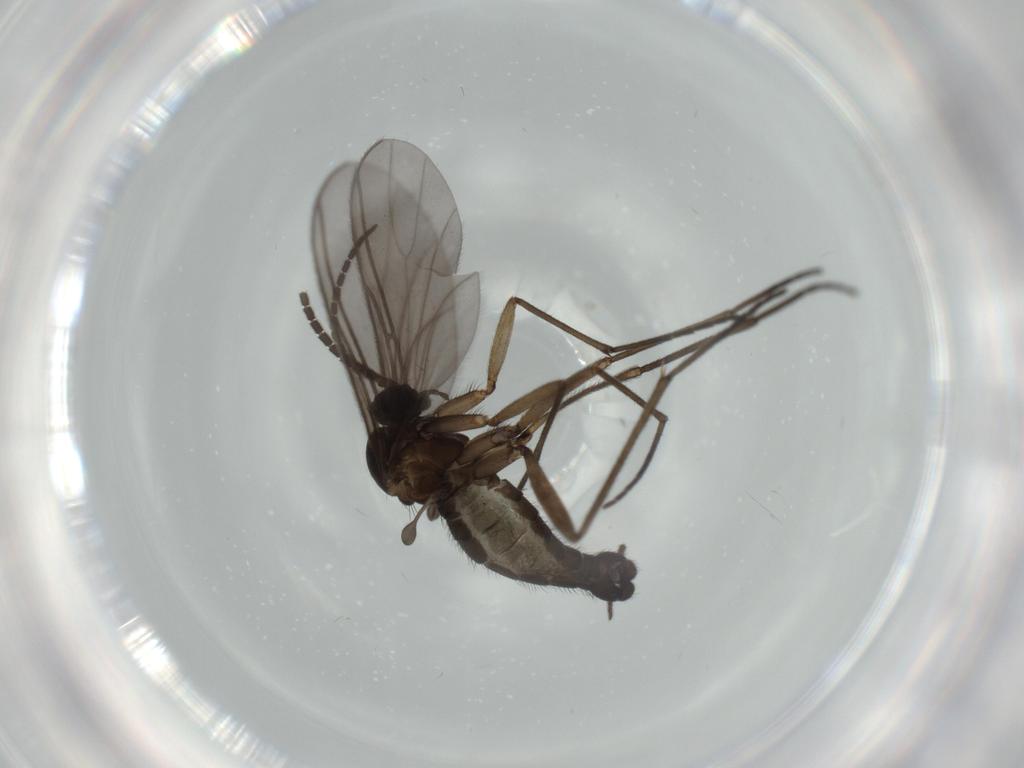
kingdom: Animalia
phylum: Arthropoda
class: Insecta
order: Diptera
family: Sciaridae
